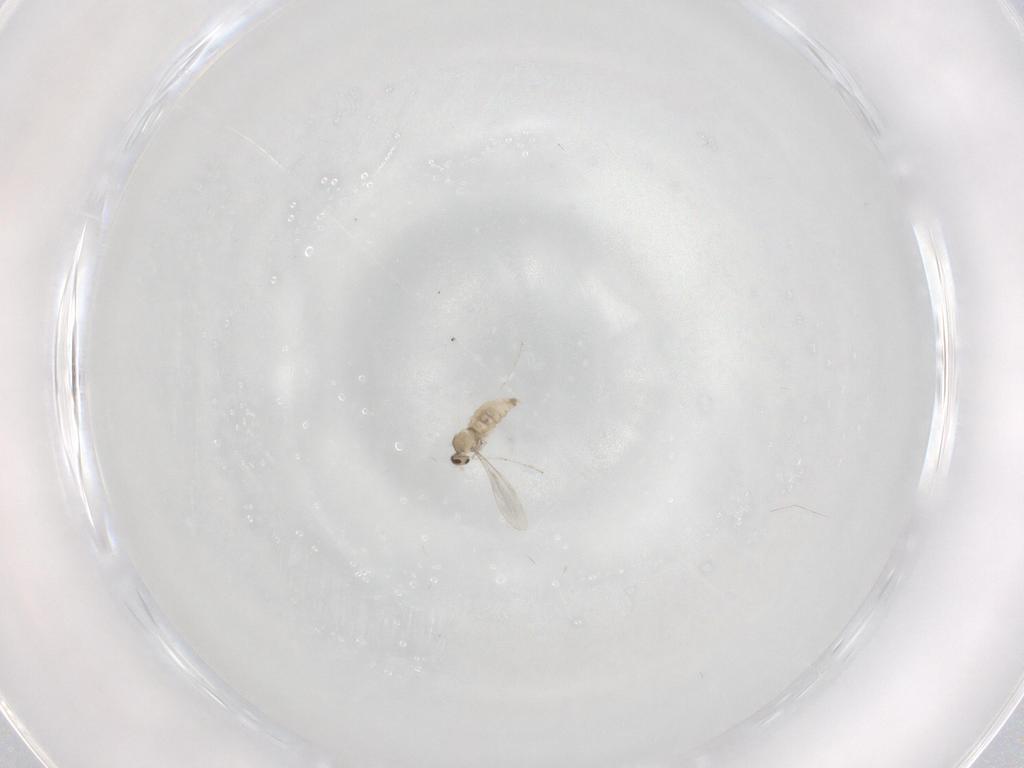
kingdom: Animalia
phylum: Arthropoda
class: Insecta
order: Diptera
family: Cecidomyiidae
